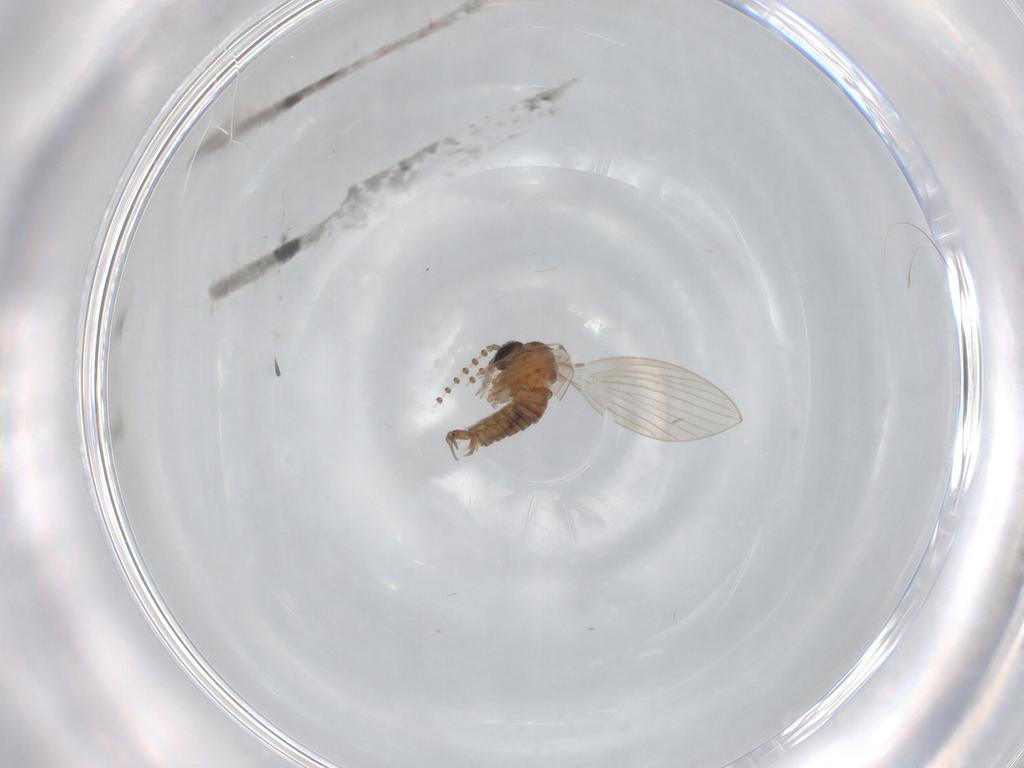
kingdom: Animalia
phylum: Arthropoda
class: Insecta
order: Diptera
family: Psychodidae
